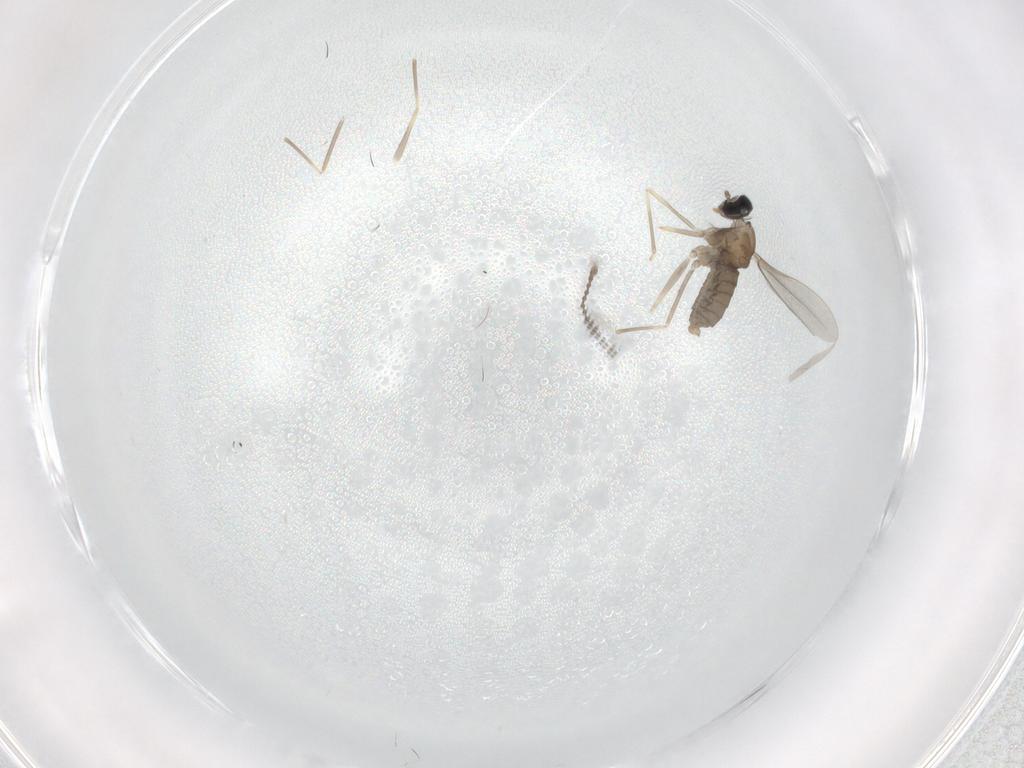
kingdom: Animalia
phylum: Arthropoda
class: Insecta
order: Diptera
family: Cecidomyiidae
